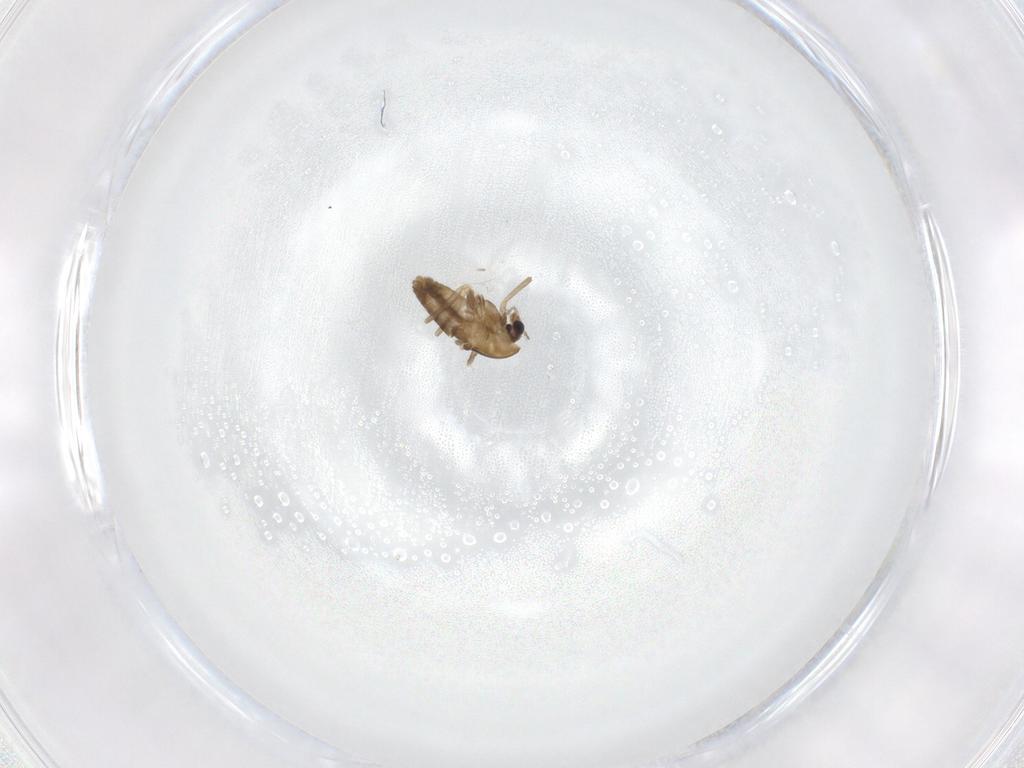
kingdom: Animalia
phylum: Arthropoda
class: Insecta
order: Diptera
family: Chironomidae
